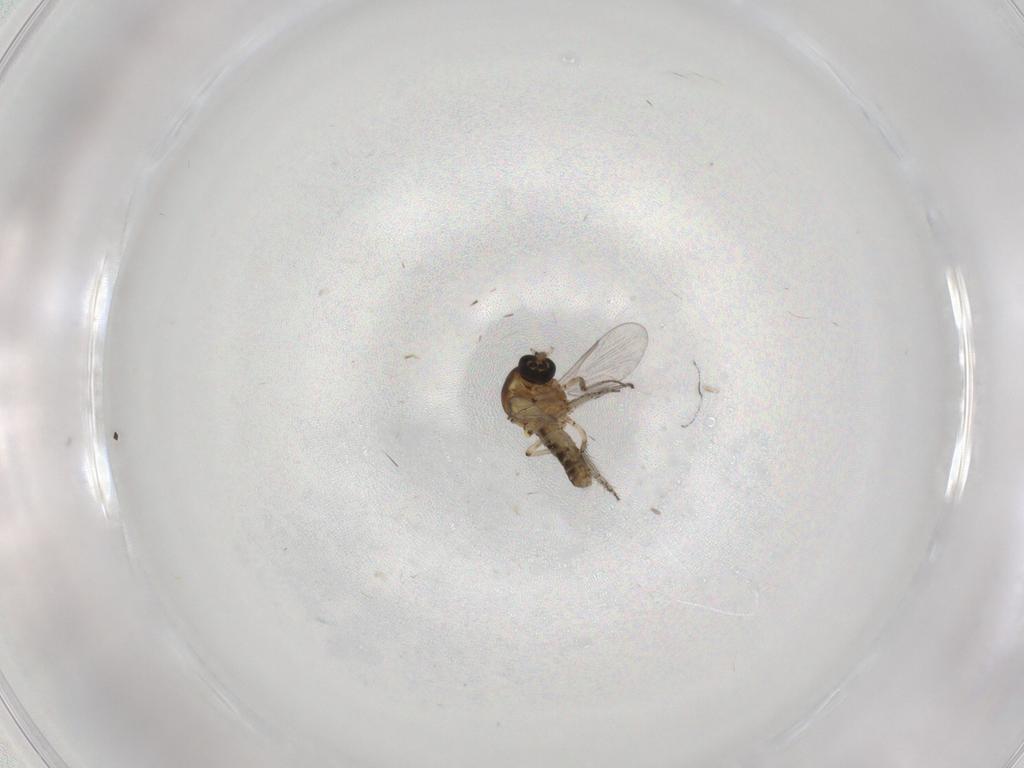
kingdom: Animalia
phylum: Arthropoda
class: Insecta
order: Diptera
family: Ceratopogonidae
